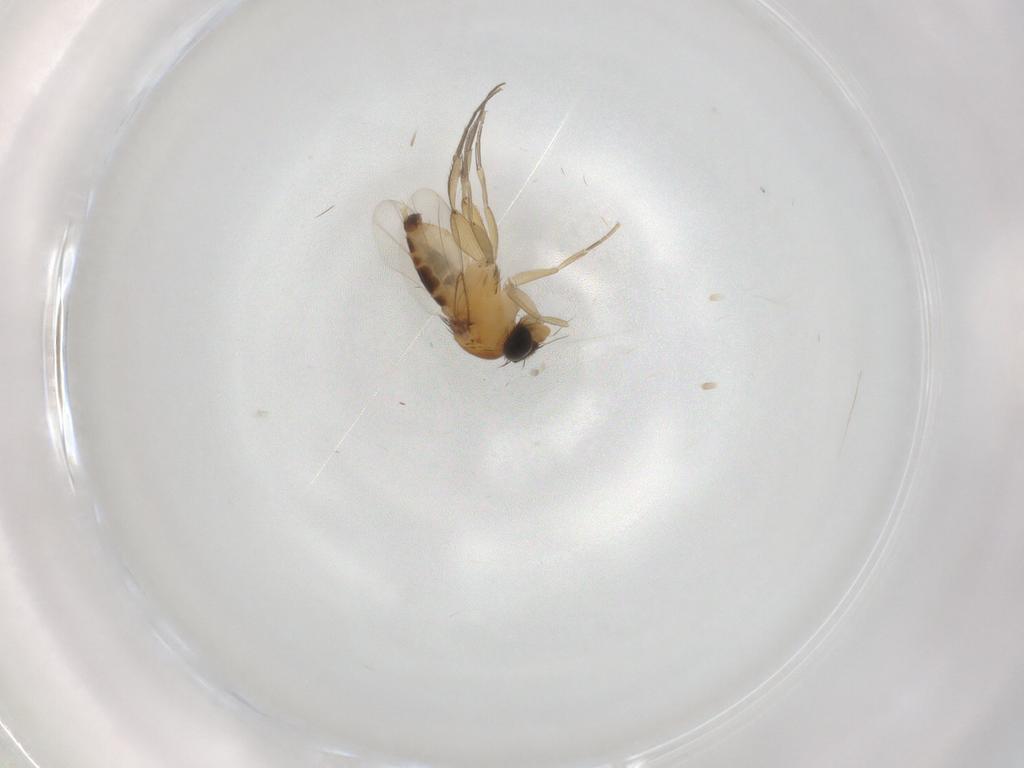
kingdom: Animalia
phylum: Arthropoda
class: Insecta
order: Diptera
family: Phoridae
